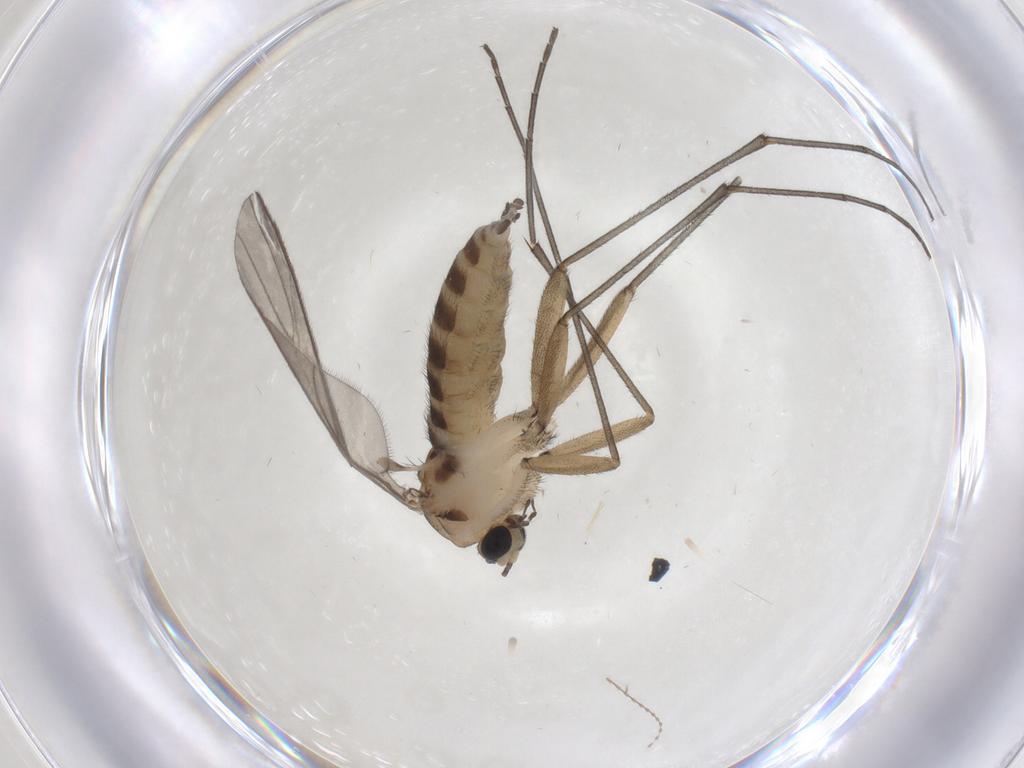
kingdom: Animalia
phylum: Arthropoda
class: Insecta
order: Diptera
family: Sciaridae
